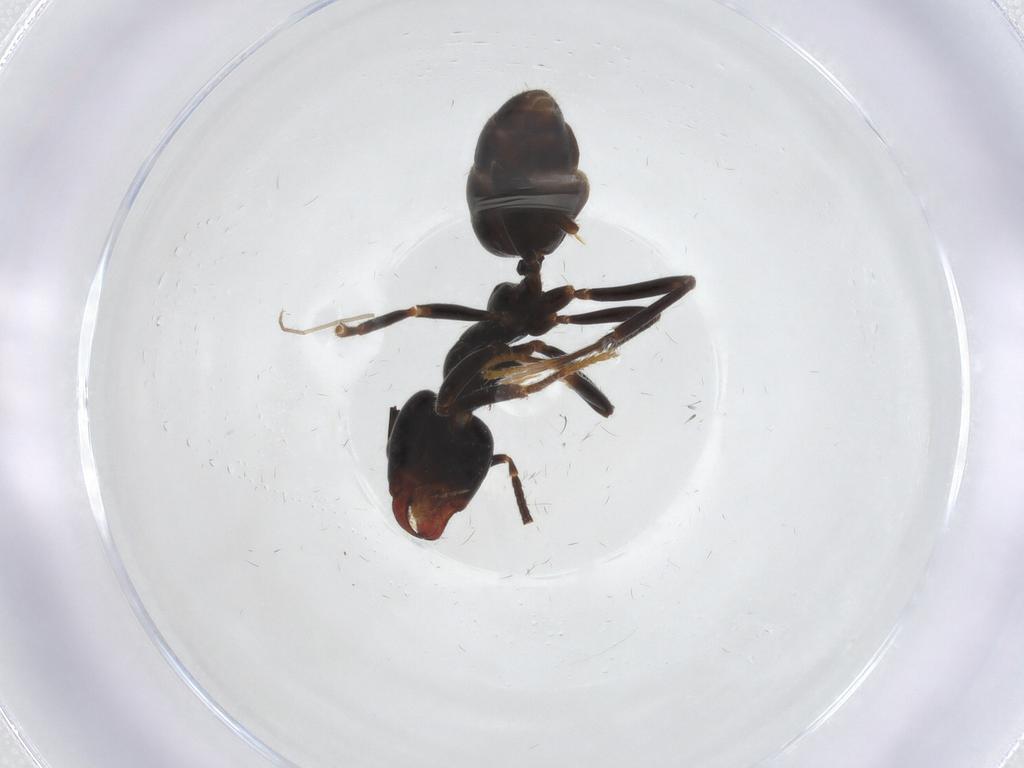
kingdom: Animalia
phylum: Arthropoda
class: Insecta
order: Hymenoptera
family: Formicidae
